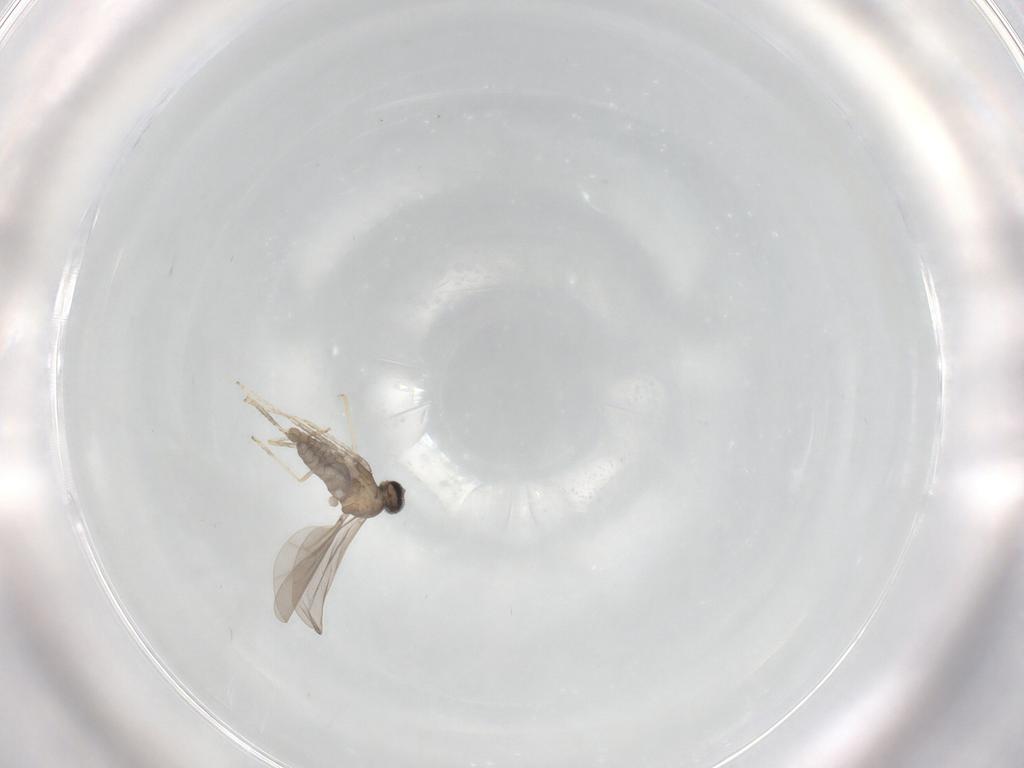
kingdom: Animalia
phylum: Arthropoda
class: Insecta
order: Diptera
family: Cecidomyiidae
